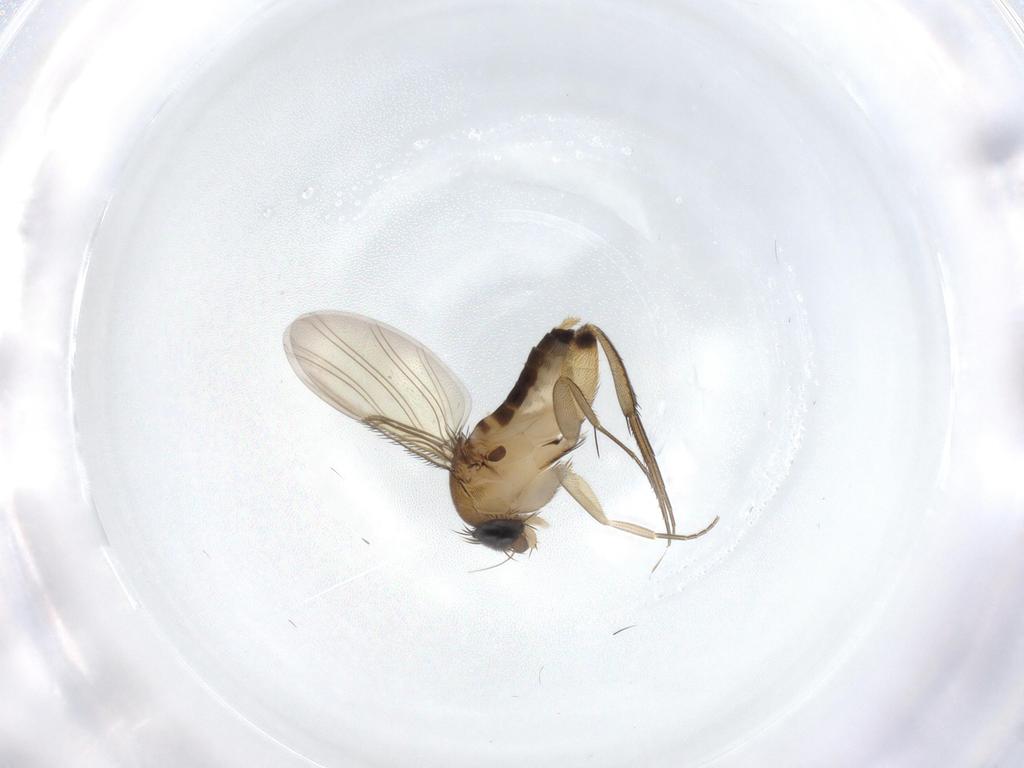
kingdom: Animalia
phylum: Arthropoda
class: Insecta
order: Diptera
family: Phoridae
